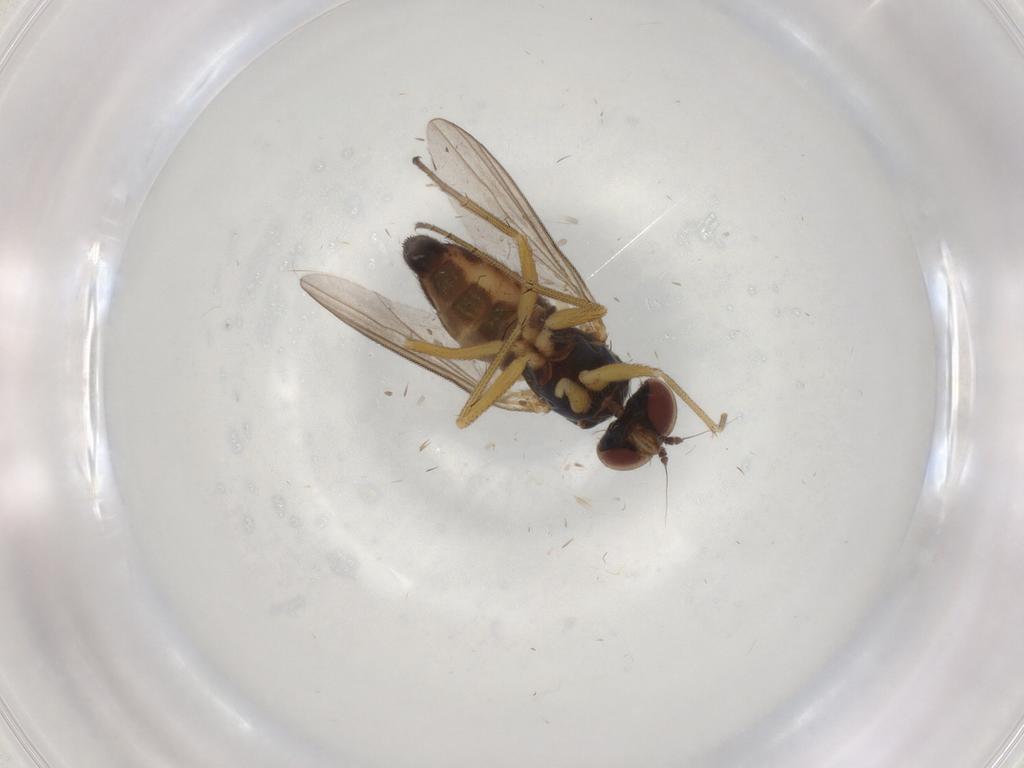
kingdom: Animalia
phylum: Arthropoda
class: Insecta
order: Diptera
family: Dolichopodidae
